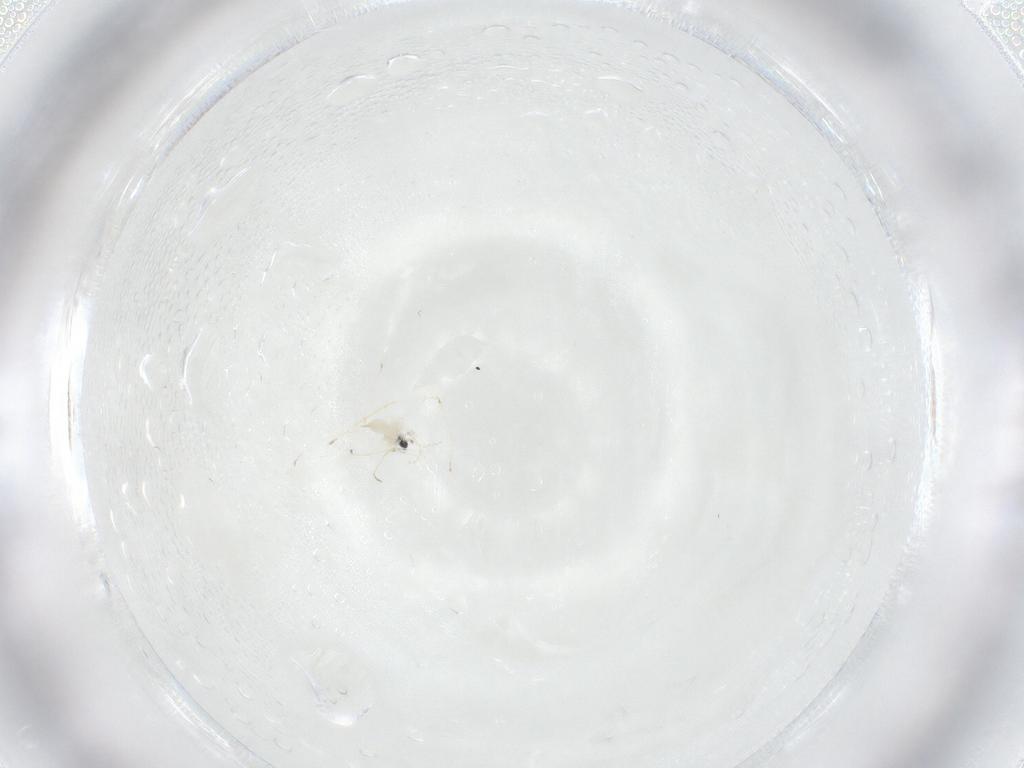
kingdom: Animalia
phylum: Arthropoda
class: Insecta
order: Diptera
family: Cecidomyiidae
